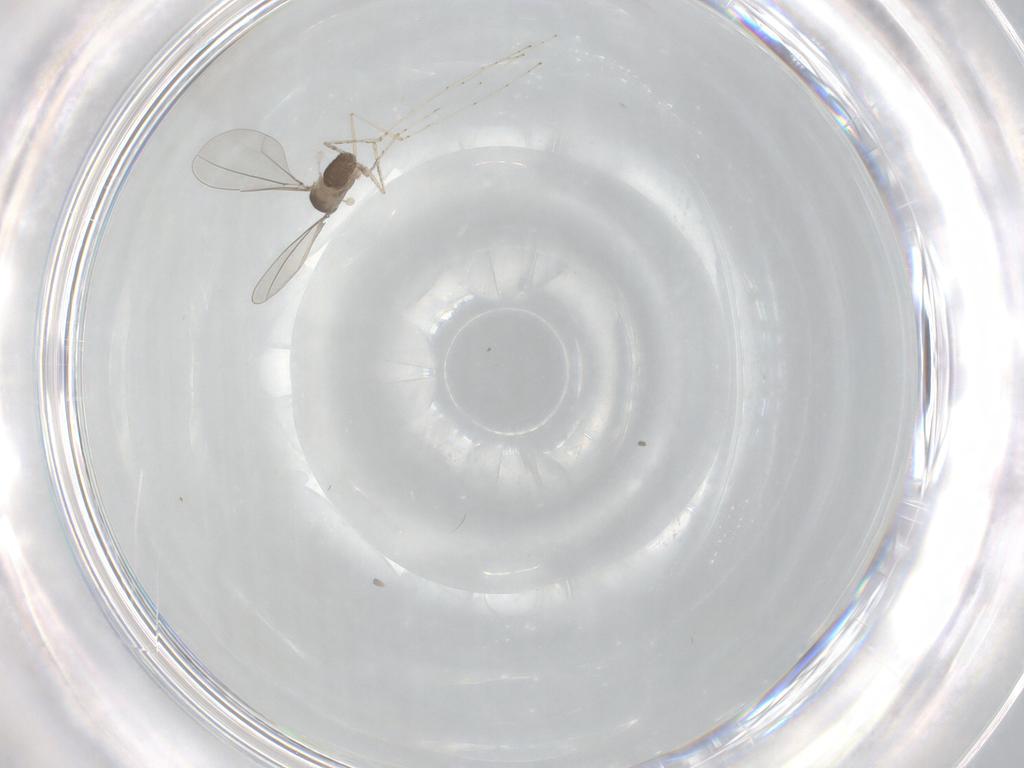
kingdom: Animalia
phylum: Arthropoda
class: Insecta
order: Diptera
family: Cecidomyiidae
